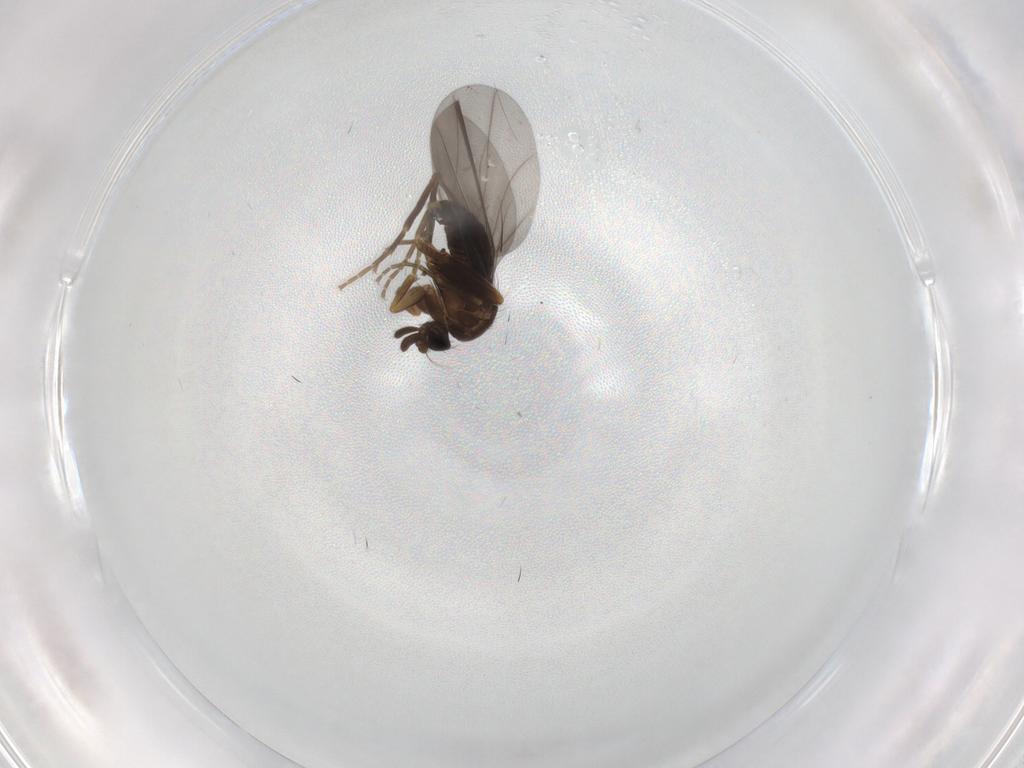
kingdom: Animalia
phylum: Arthropoda
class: Insecta
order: Diptera
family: Phoridae
